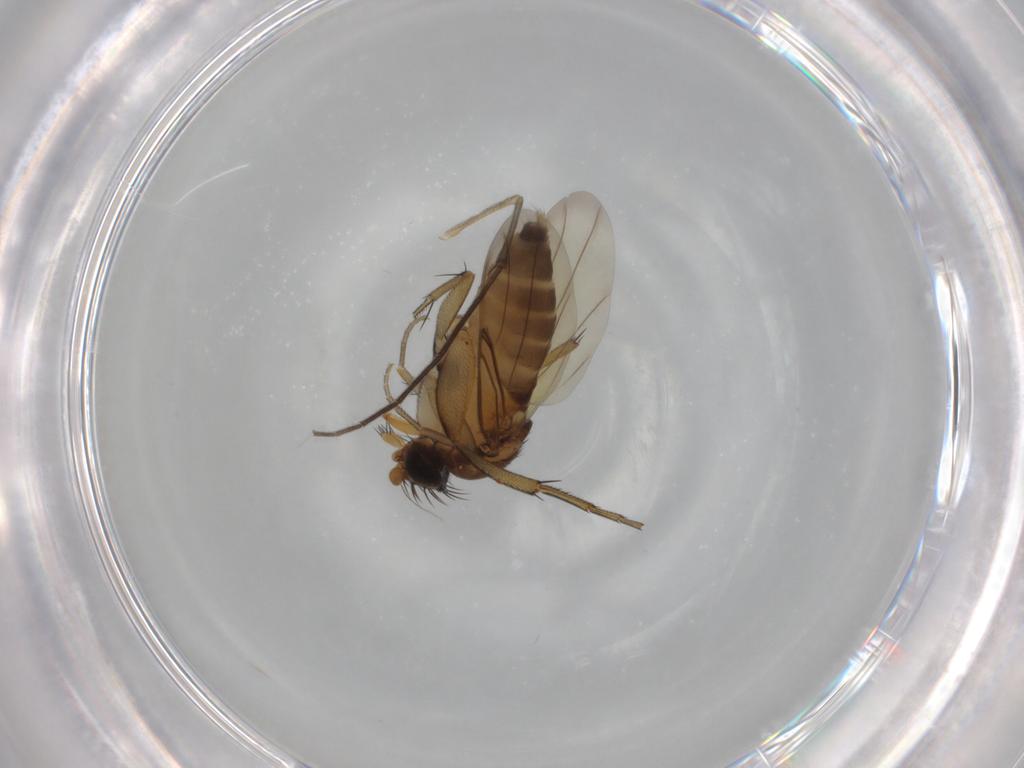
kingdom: Animalia
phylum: Arthropoda
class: Insecta
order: Diptera
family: Phoridae
